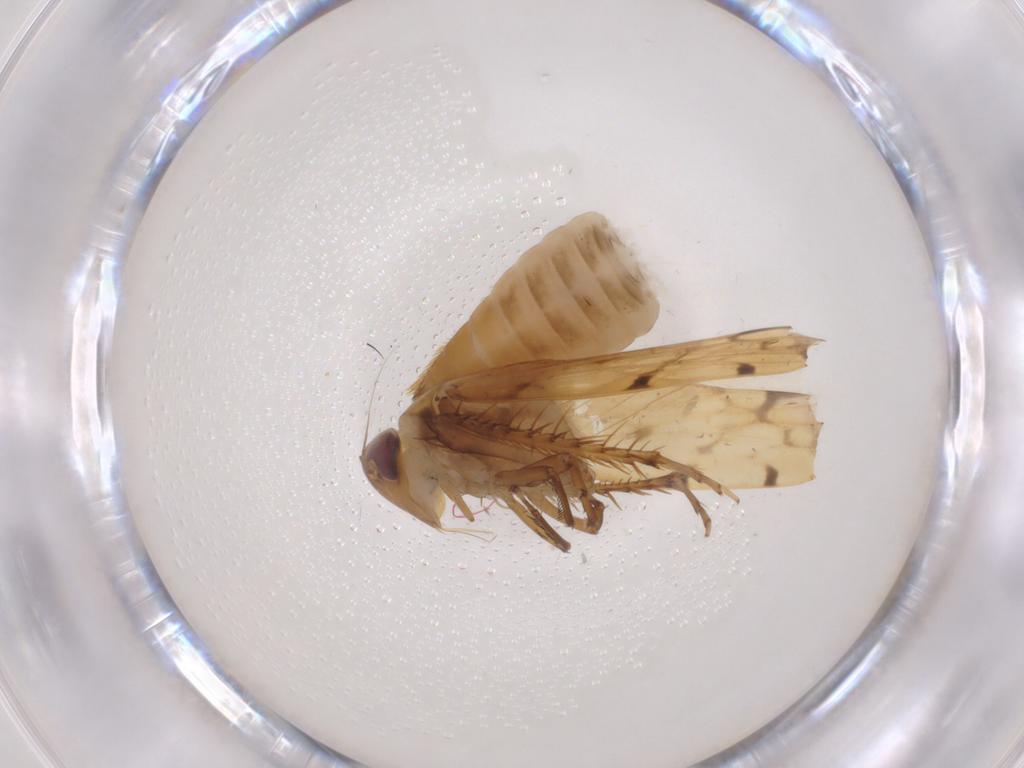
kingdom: Animalia
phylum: Arthropoda
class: Insecta
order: Hemiptera
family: Cicadellidae
